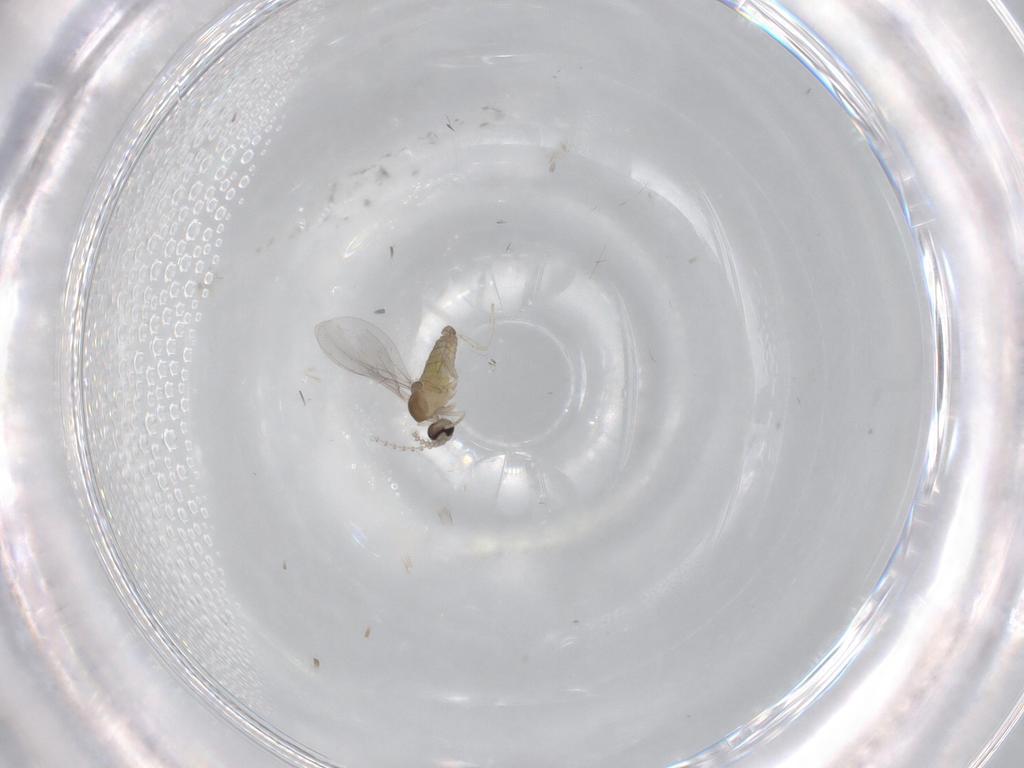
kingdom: Animalia
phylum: Arthropoda
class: Insecta
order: Diptera
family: Cecidomyiidae
